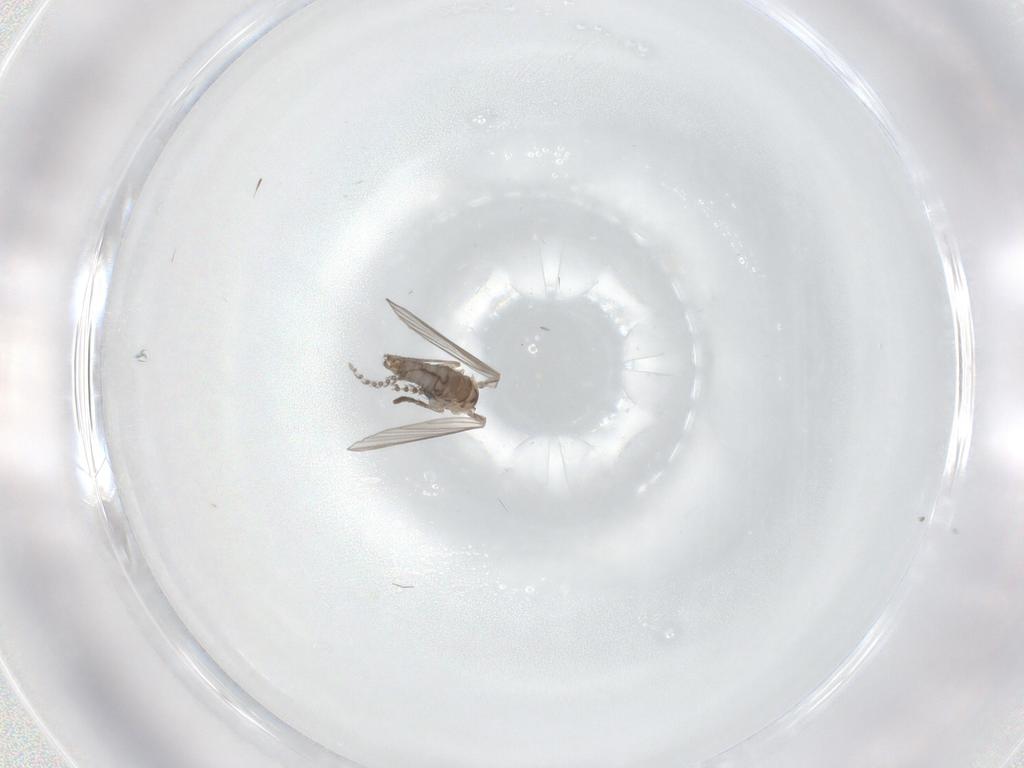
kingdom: Animalia
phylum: Arthropoda
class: Insecta
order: Diptera
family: Psychodidae
